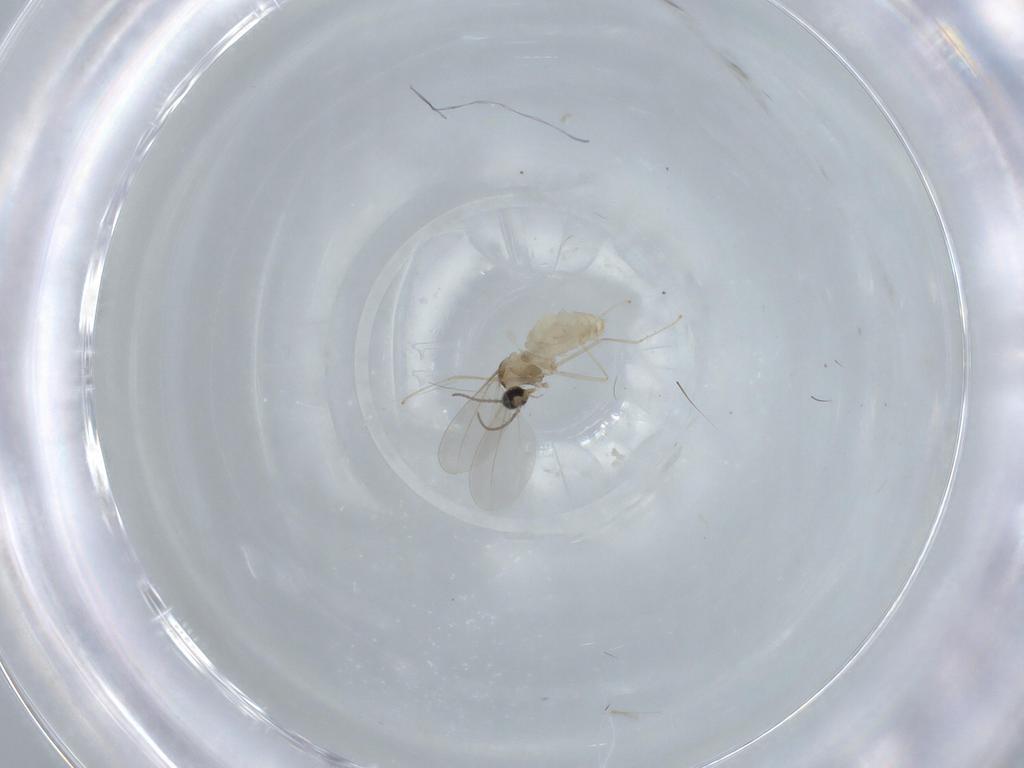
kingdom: Animalia
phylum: Arthropoda
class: Insecta
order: Diptera
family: Cecidomyiidae
